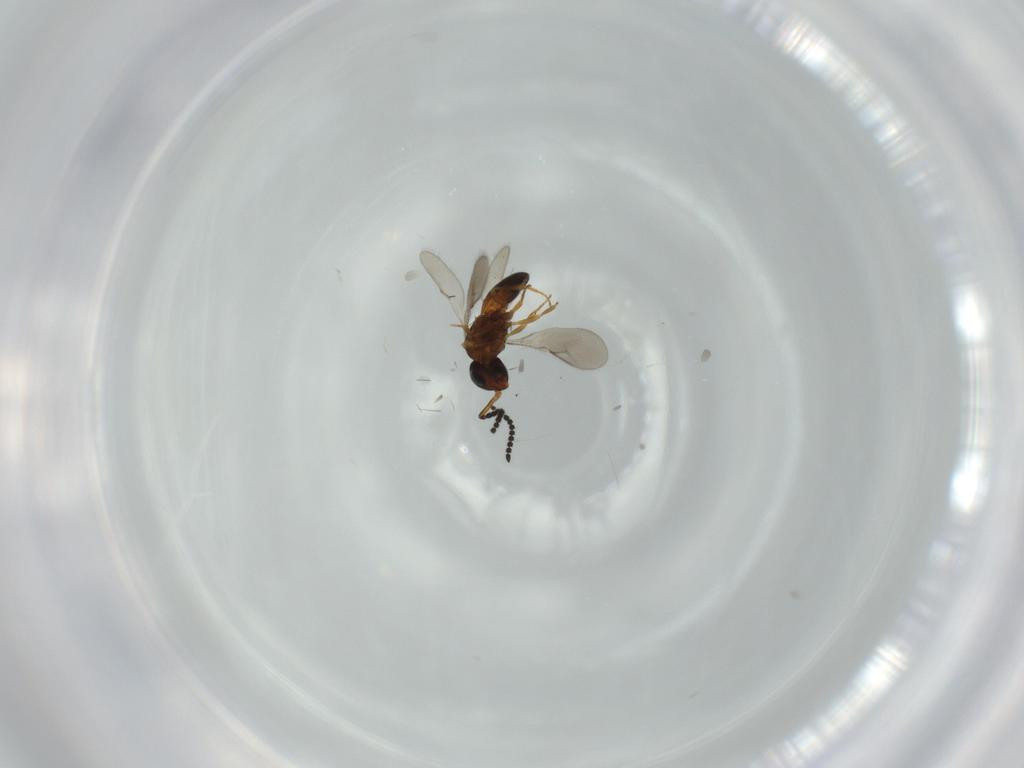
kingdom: Animalia
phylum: Arthropoda
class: Insecta
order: Hymenoptera
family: Scelionidae
